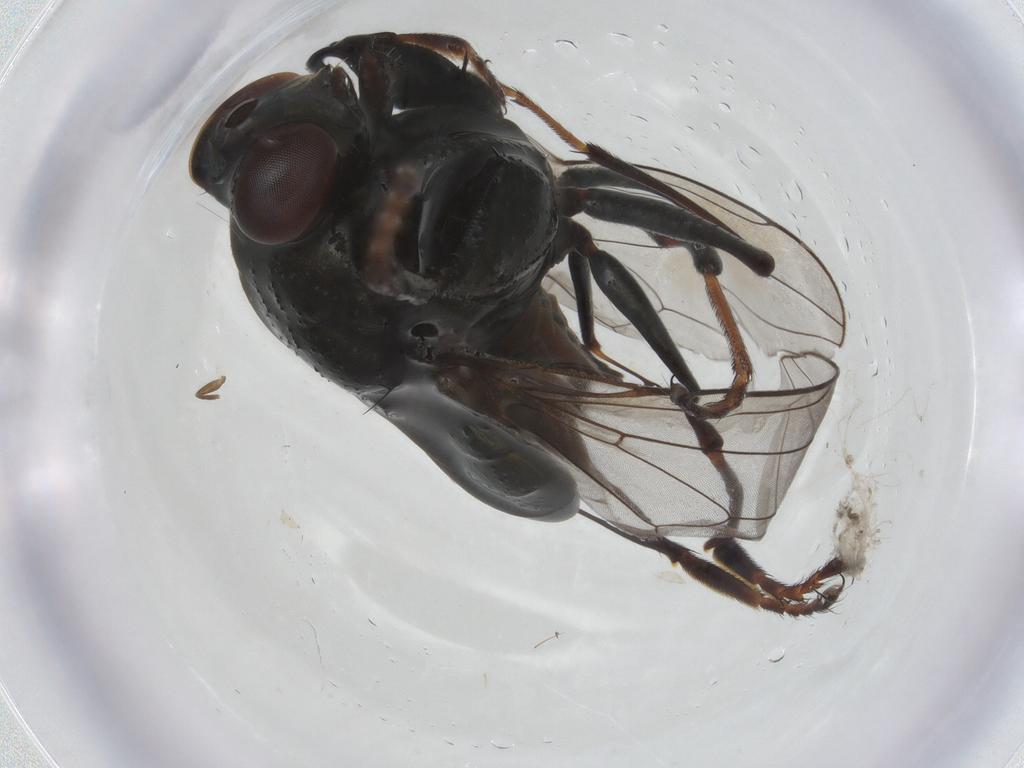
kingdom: Animalia
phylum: Arthropoda
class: Insecta
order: Diptera
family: Ephydridae
